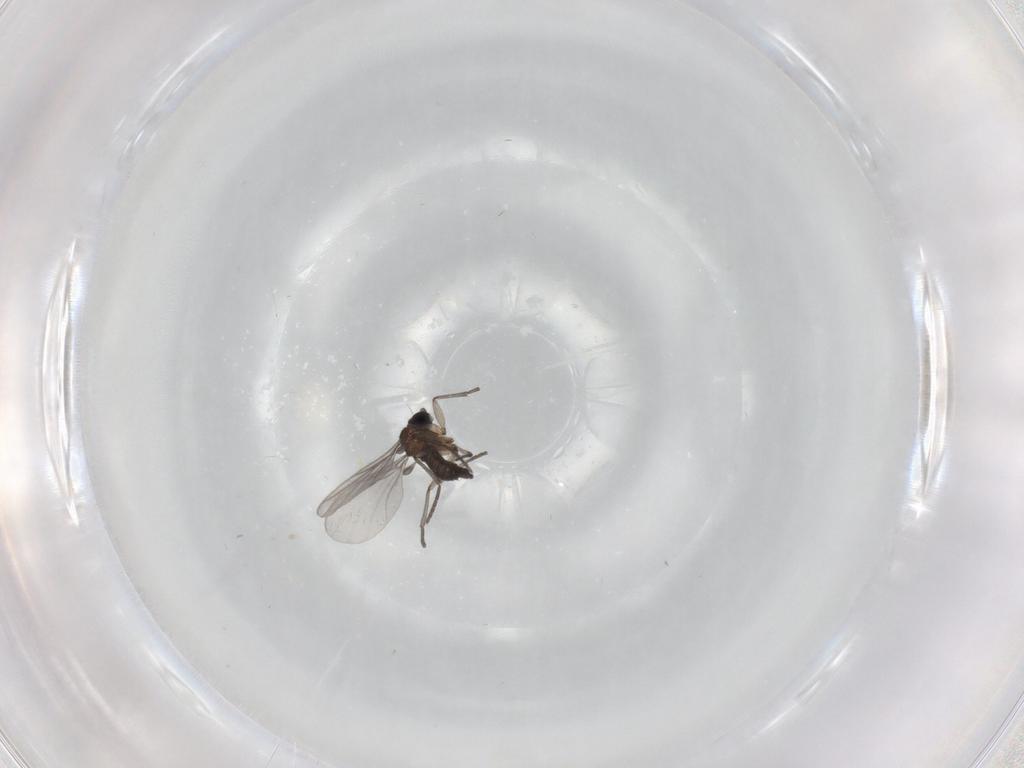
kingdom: Animalia
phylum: Arthropoda
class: Insecta
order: Diptera
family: Sciaridae
